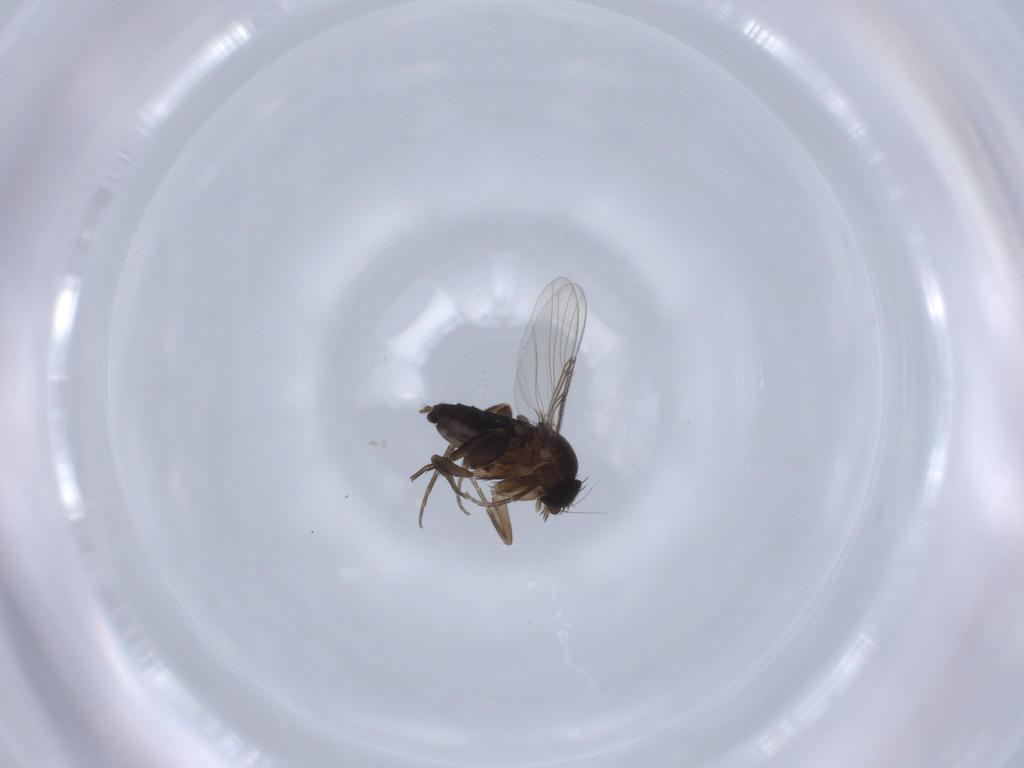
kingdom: Animalia
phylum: Arthropoda
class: Insecta
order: Diptera
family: Phoridae
